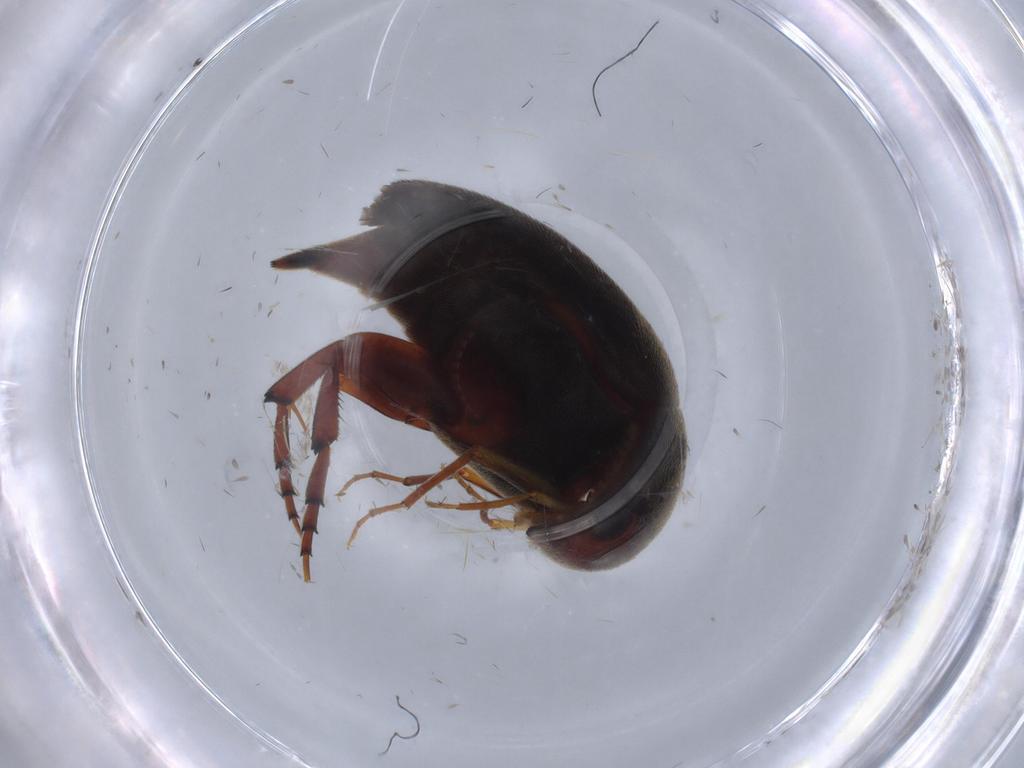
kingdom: Animalia
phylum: Arthropoda
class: Insecta
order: Coleoptera
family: Mordellidae
